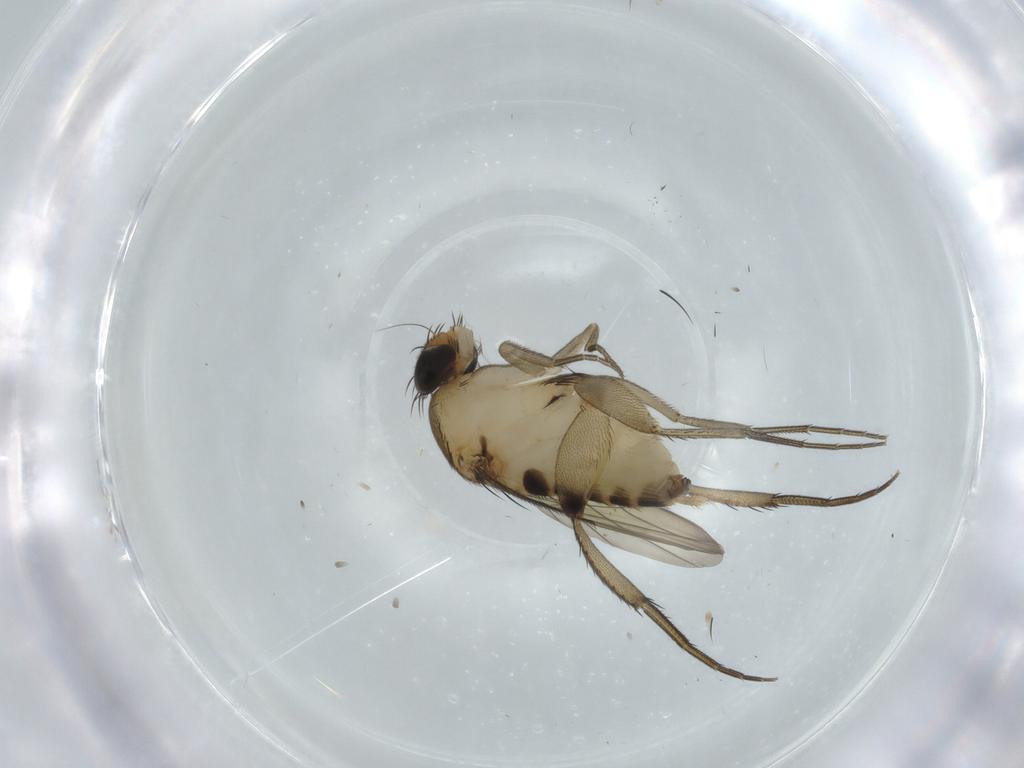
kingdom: Animalia
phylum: Arthropoda
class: Insecta
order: Diptera
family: Phoridae
